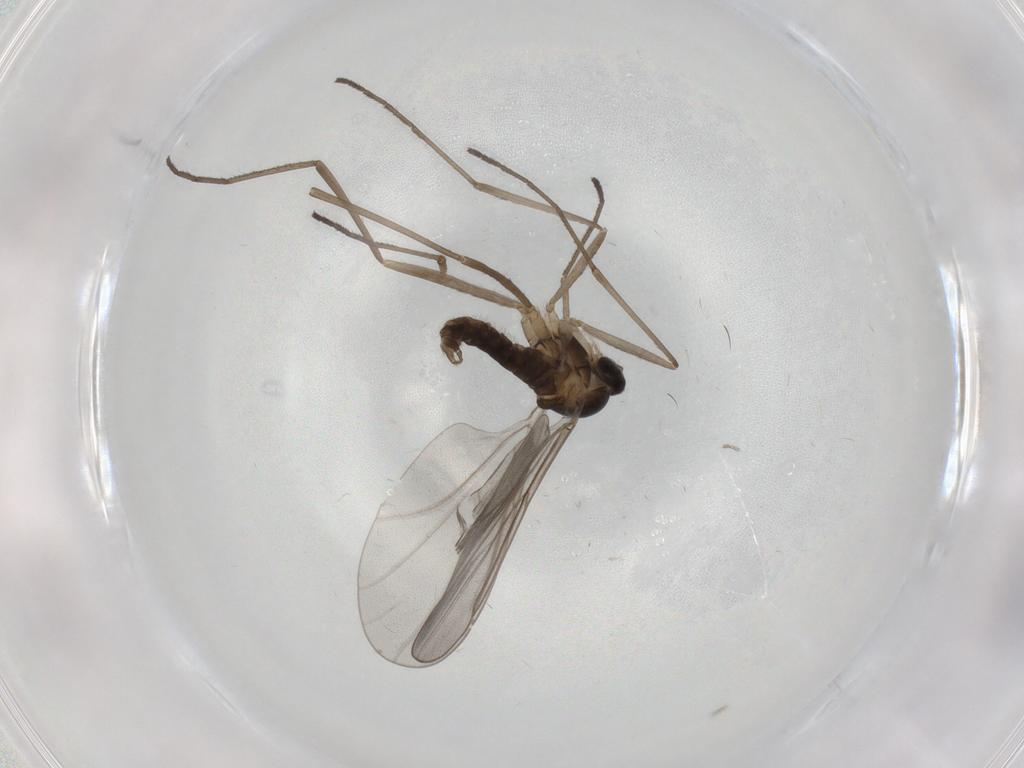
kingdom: Animalia
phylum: Arthropoda
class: Insecta
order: Diptera
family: Cecidomyiidae
